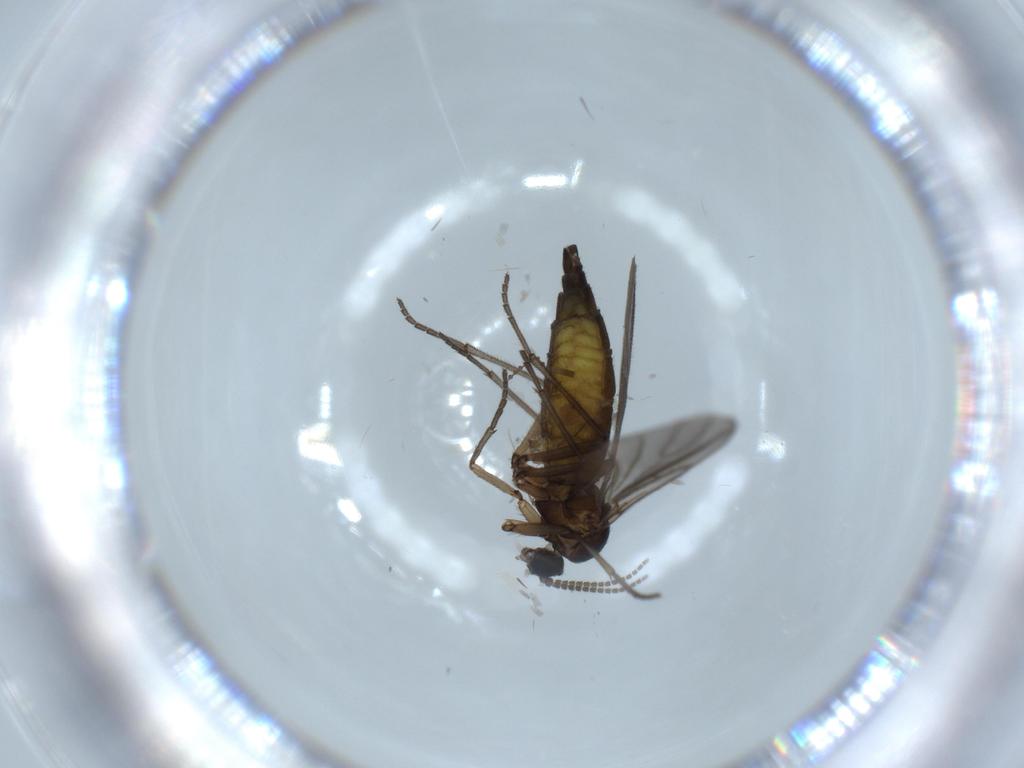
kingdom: Animalia
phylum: Arthropoda
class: Insecta
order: Diptera
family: Sciaridae
